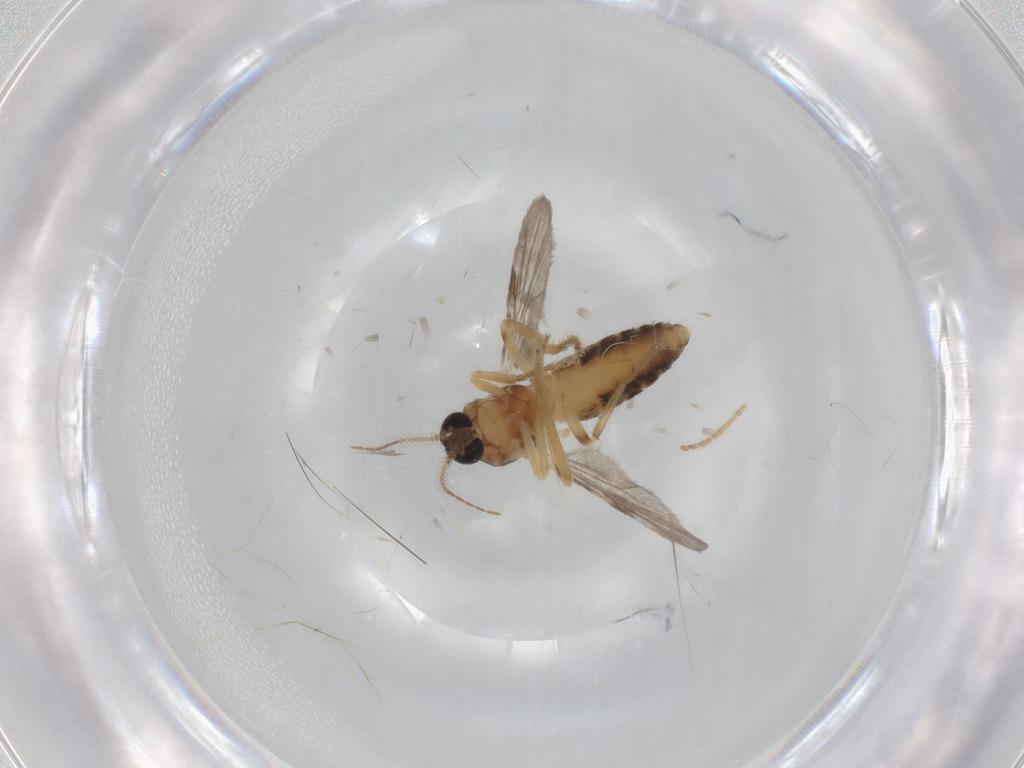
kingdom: Animalia
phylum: Arthropoda
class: Insecta
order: Diptera
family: Ceratopogonidae
